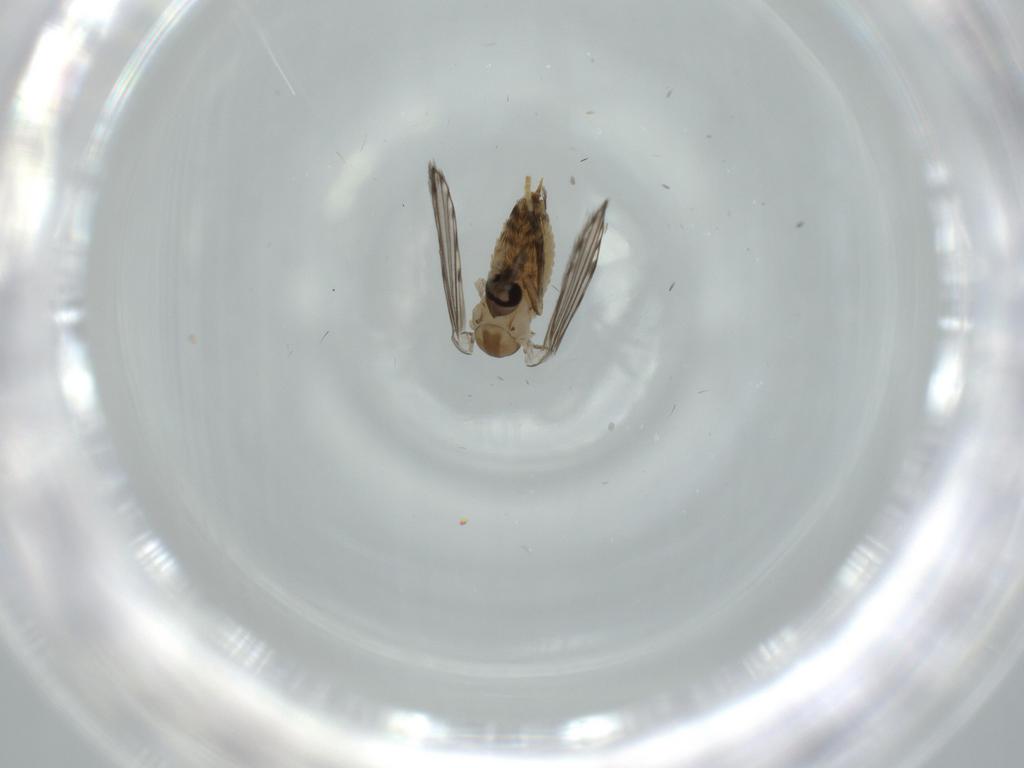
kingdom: Animalia
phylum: Arthropoda
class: Insecta
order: Diptera
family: Psychodidae
